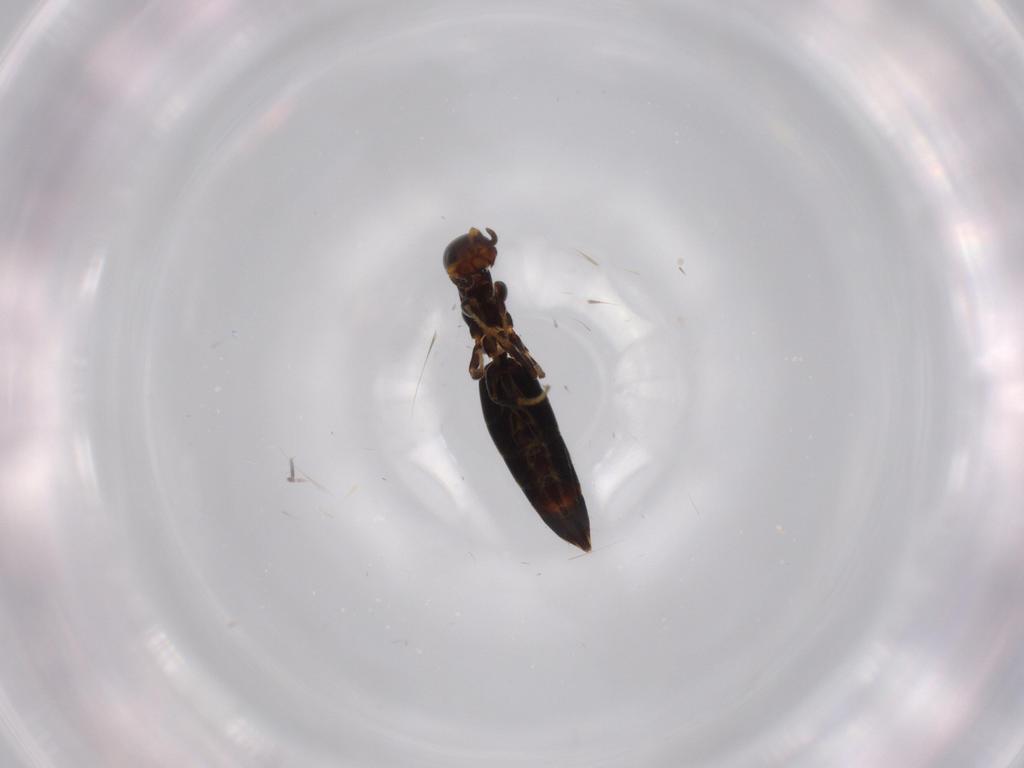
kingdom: Animalia
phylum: Arthropoda
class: Insecta
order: Hymenoptera
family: Bethylidae
